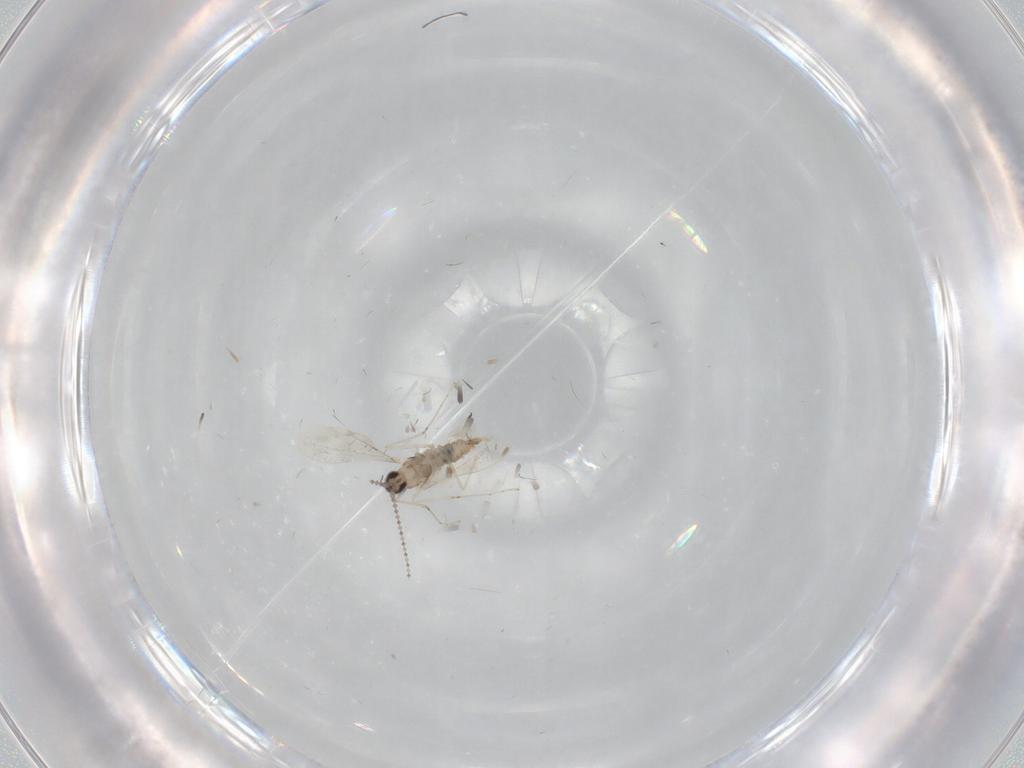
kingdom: Animalia
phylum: Arthropoda
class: Insecta
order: Diptera
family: Cecidomyiidae
